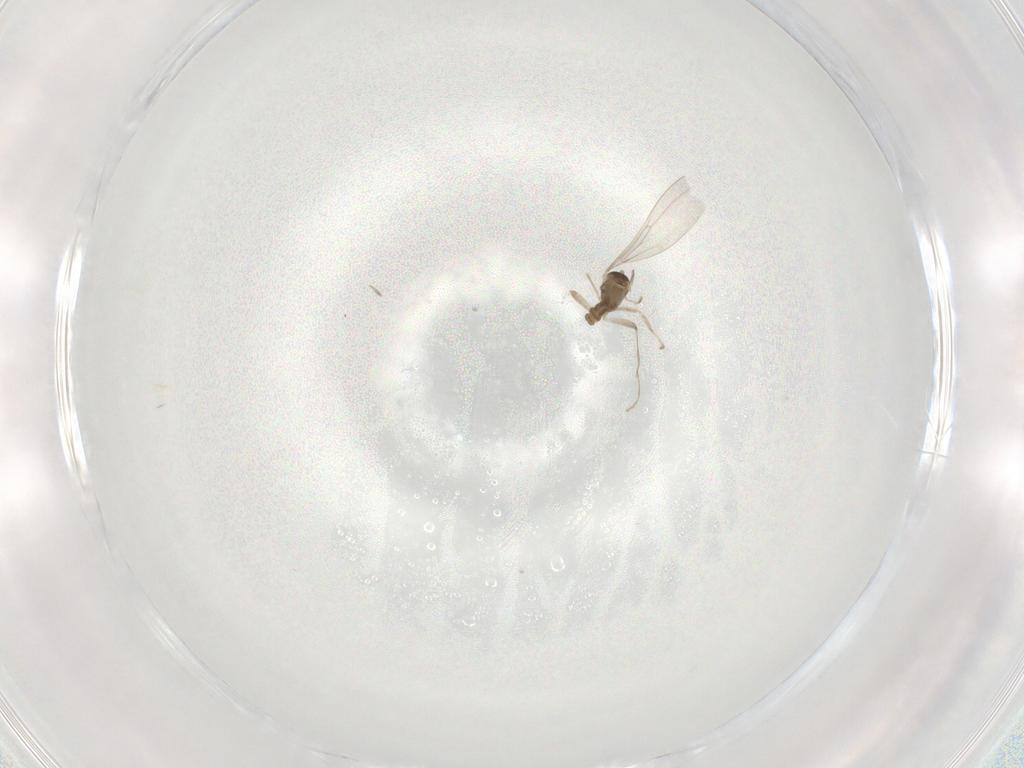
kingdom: Animalia
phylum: Arthropoda
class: Insecta
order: Diptera
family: Cecidomyiidae
